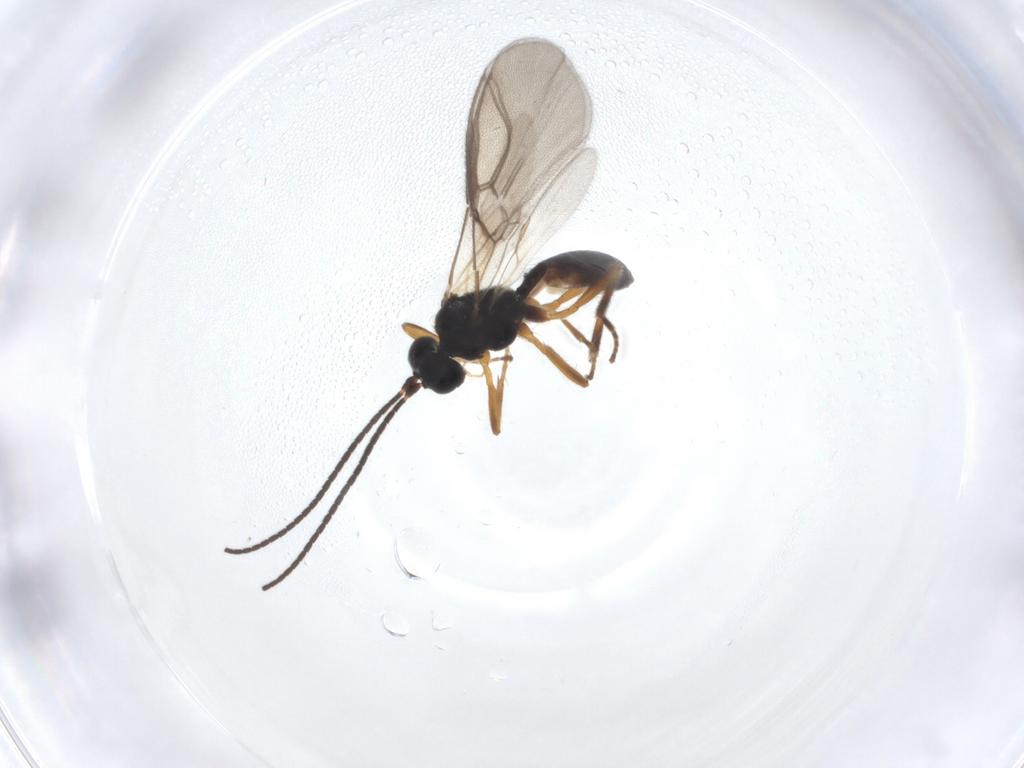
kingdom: Animalia
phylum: Arthropoda
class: Insecta
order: Hymenoptera
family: Braconidae
